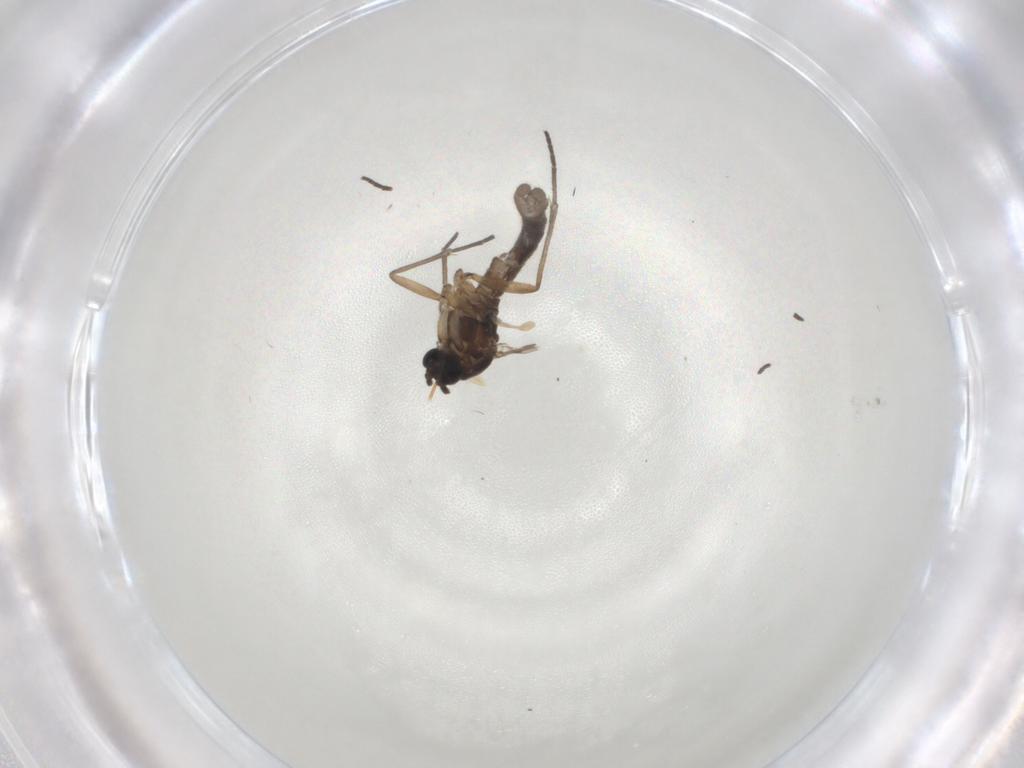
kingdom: Animalia
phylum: Arthropoda
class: Insecta
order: Diptera
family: Sciaridae
